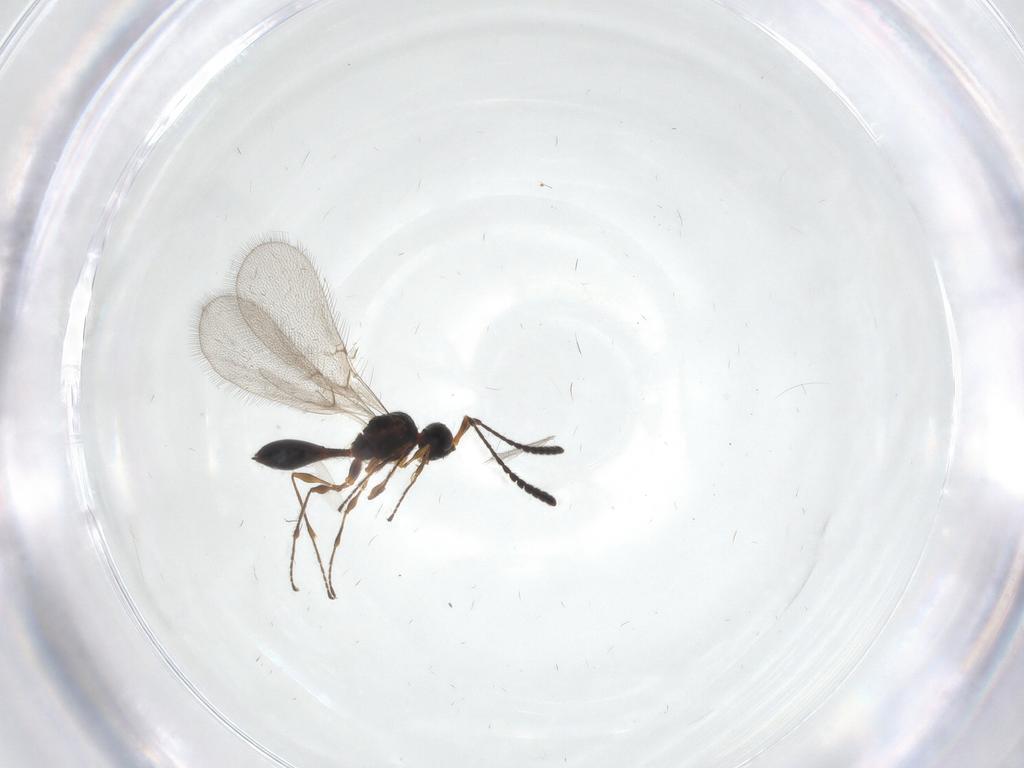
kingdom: Animalia
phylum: Arthropoda
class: Insecta
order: Hymenoptera
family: Diapriidae
